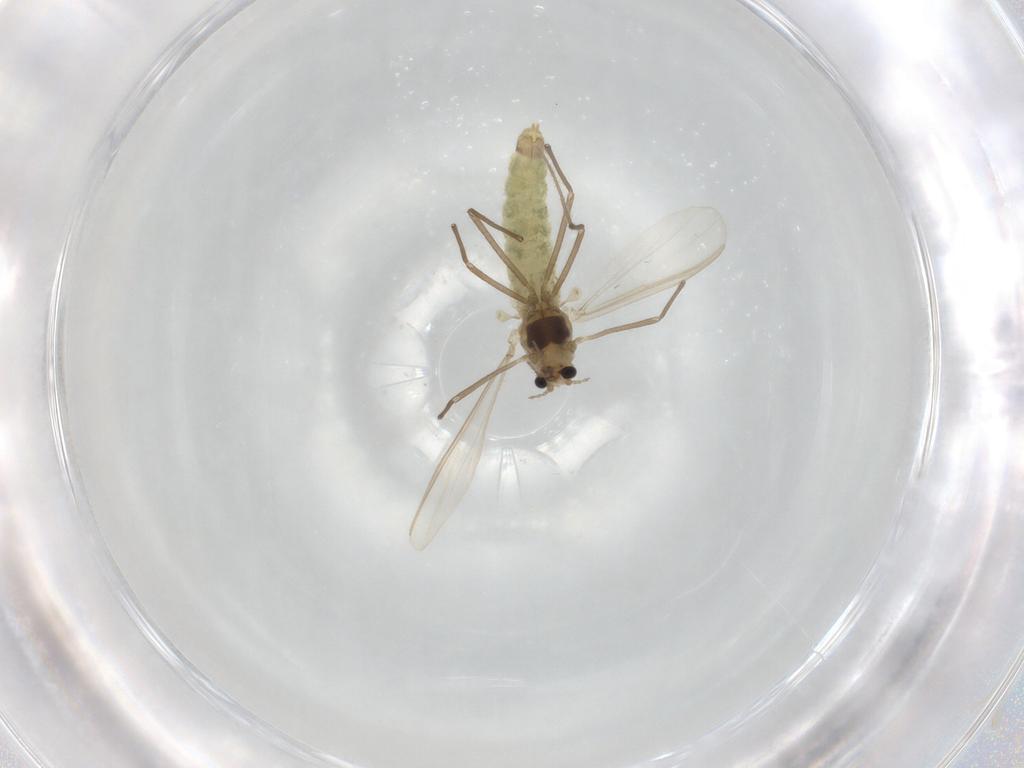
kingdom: Animalia
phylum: Arthropoda
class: Insecta
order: Diptera
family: Chironomidae
